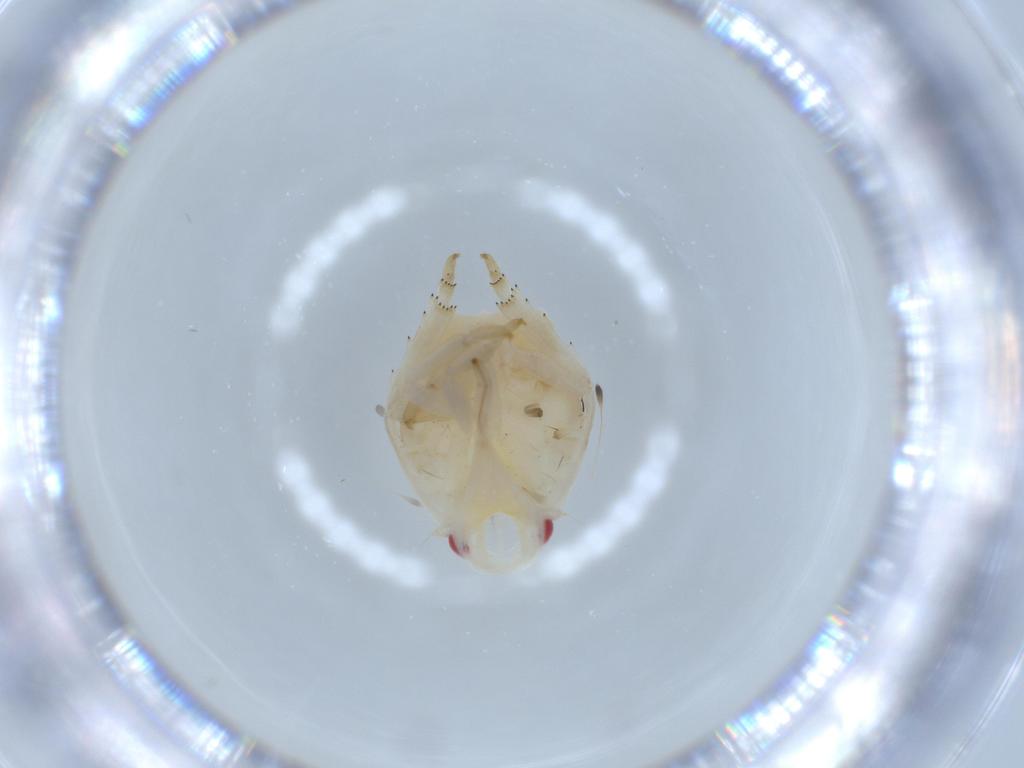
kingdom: Animalia
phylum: Arthropoda
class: Insecta
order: Hemiptera
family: Flatidae
